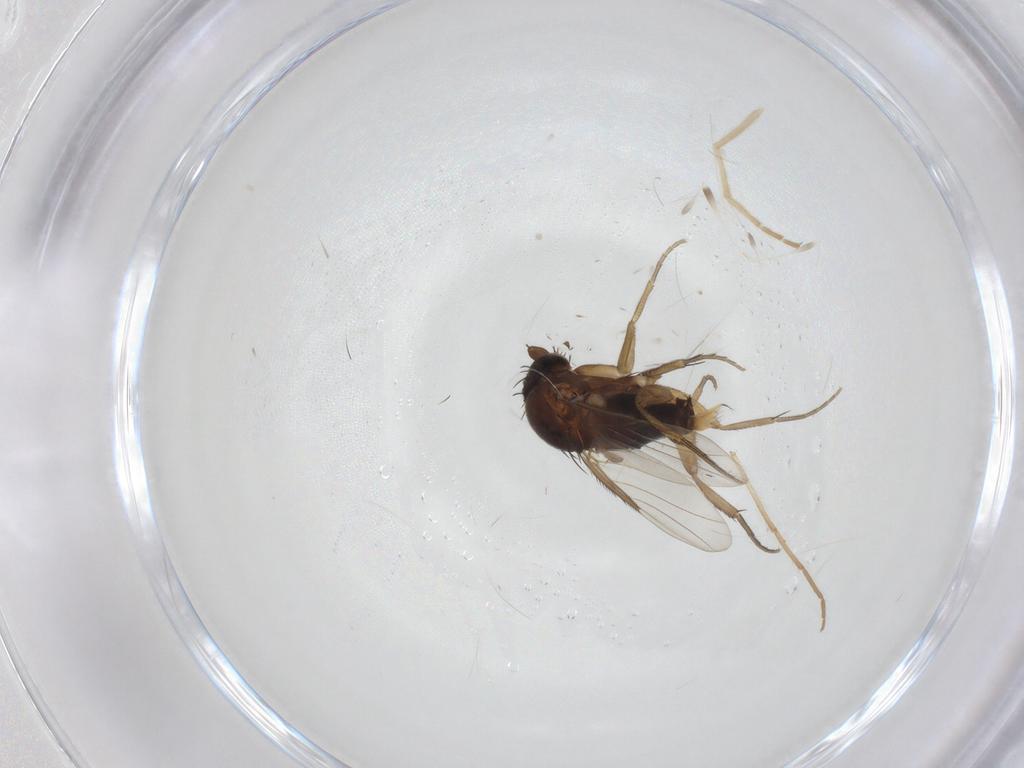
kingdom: Animalia
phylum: Arthropoda
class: Insecta
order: Diptera
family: Phoridae
